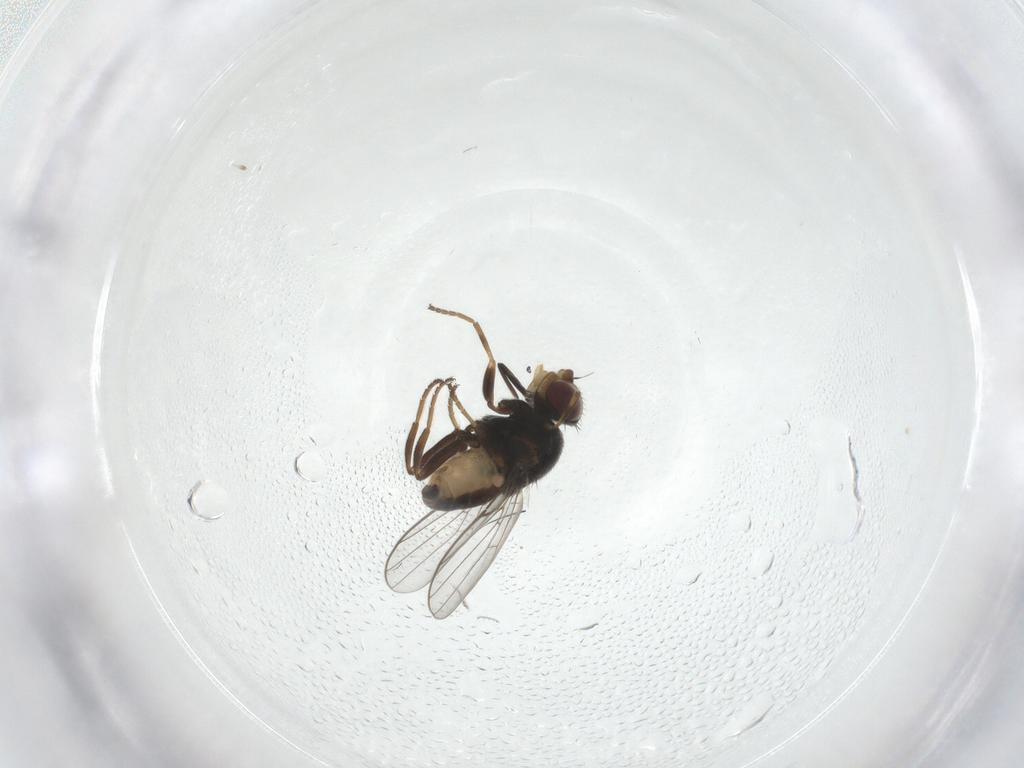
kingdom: Animalia
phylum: Arthropoda
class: Insecta
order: Diptera
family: Chloropidae
